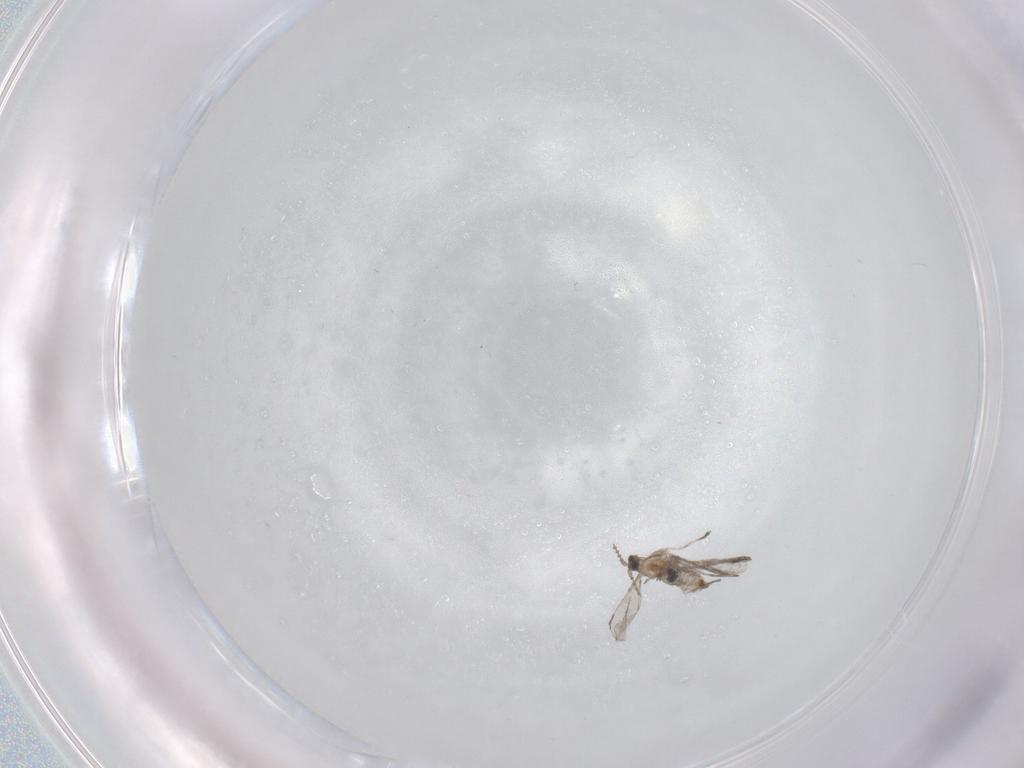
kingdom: Animalia
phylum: Arthropoda
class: Insecta
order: Diptera
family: Cecidomyiidae
